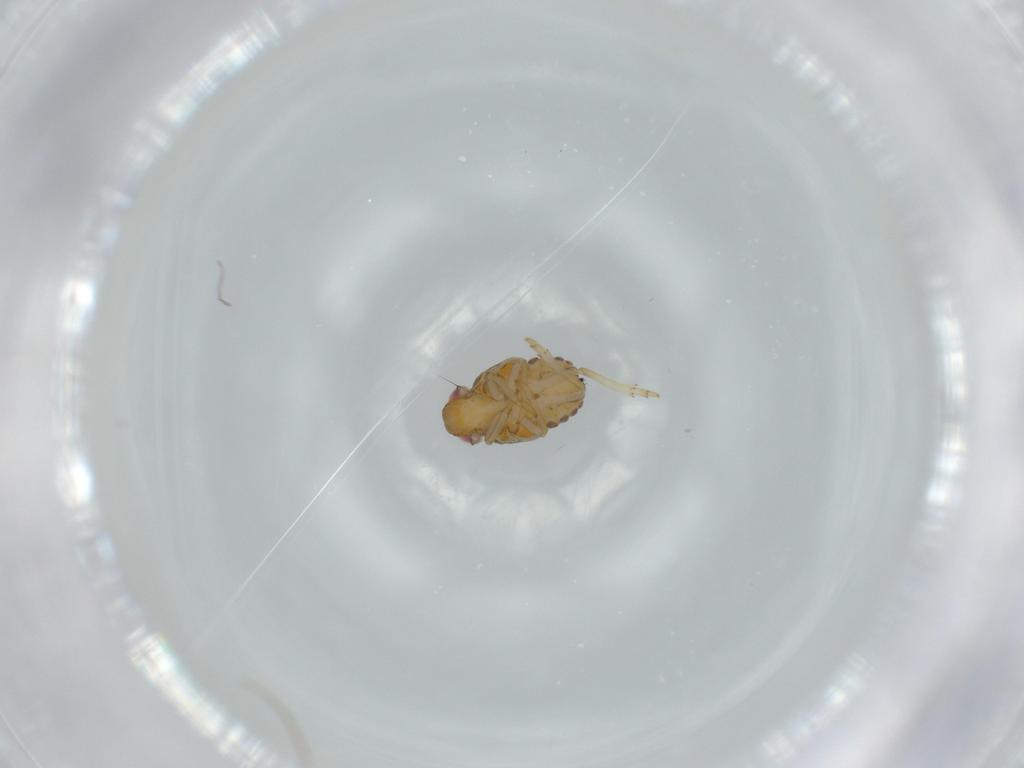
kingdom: Animalia
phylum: Arthropoda
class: Insecta
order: Hemiptera
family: Issidae
